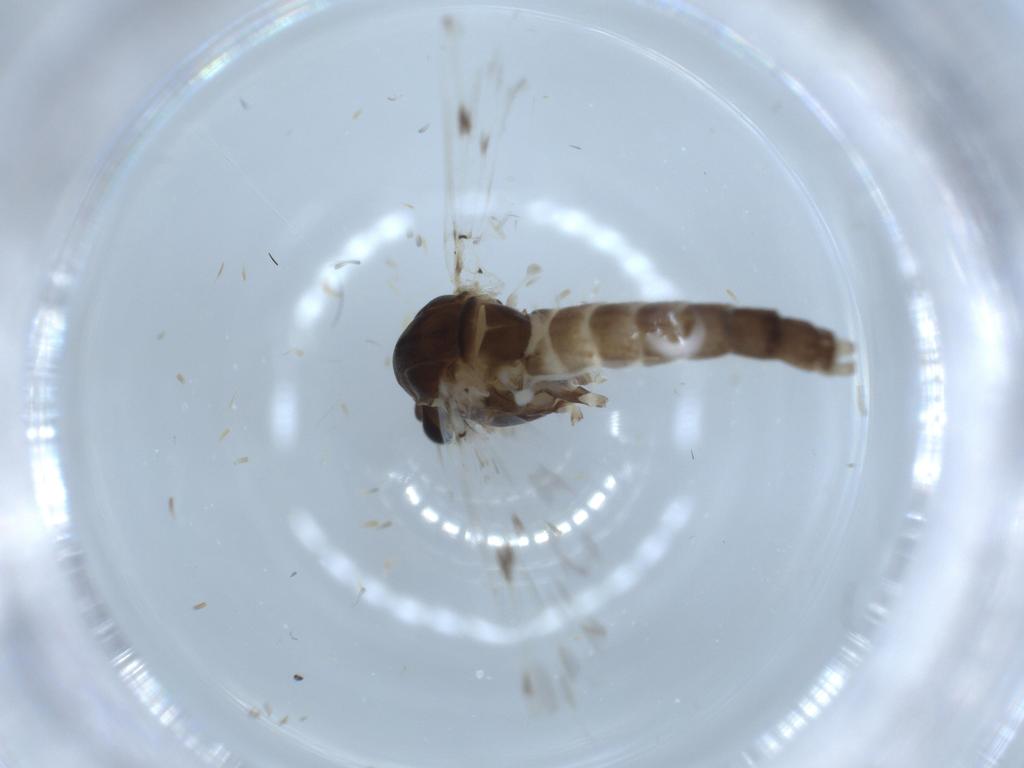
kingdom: Animalia
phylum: Arthropoda
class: Insecta
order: Diptera
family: Chironomidae
